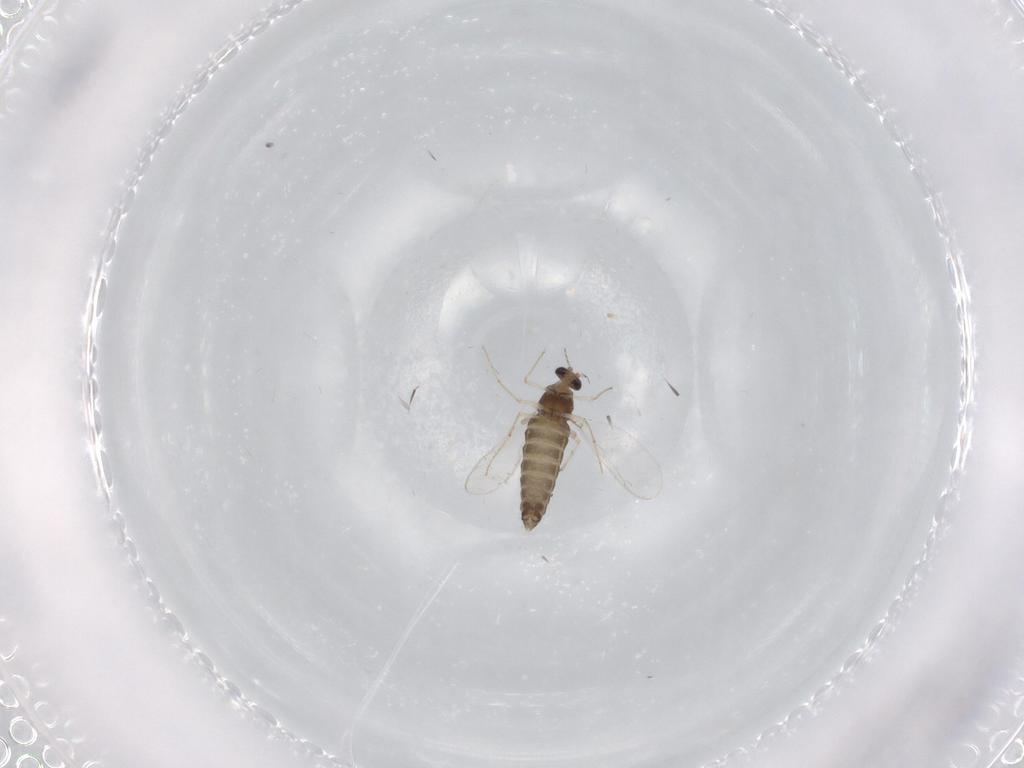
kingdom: Animalia
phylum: Arthropoda
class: Insecta
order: Diptera
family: Chironomidae
